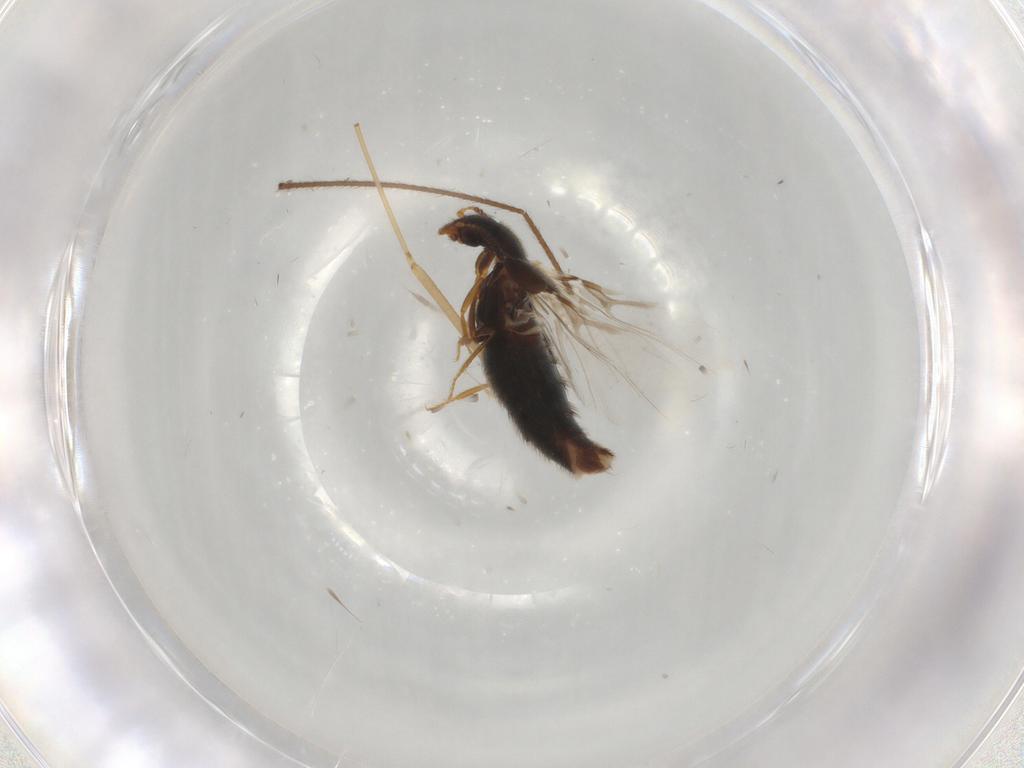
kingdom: Animalia
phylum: Arthropoda
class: Insecta
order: Coleoptera
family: Staphylinidae
